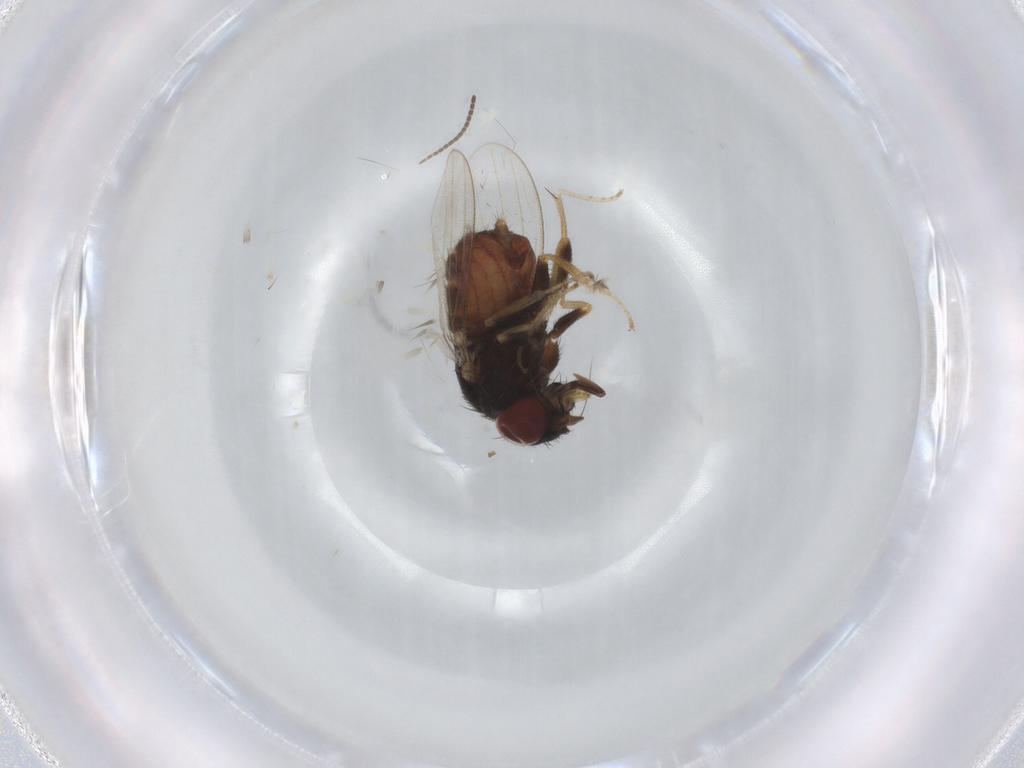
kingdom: Animalia
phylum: Arthropoda
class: Insecta
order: Diptera
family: Milichiidae
